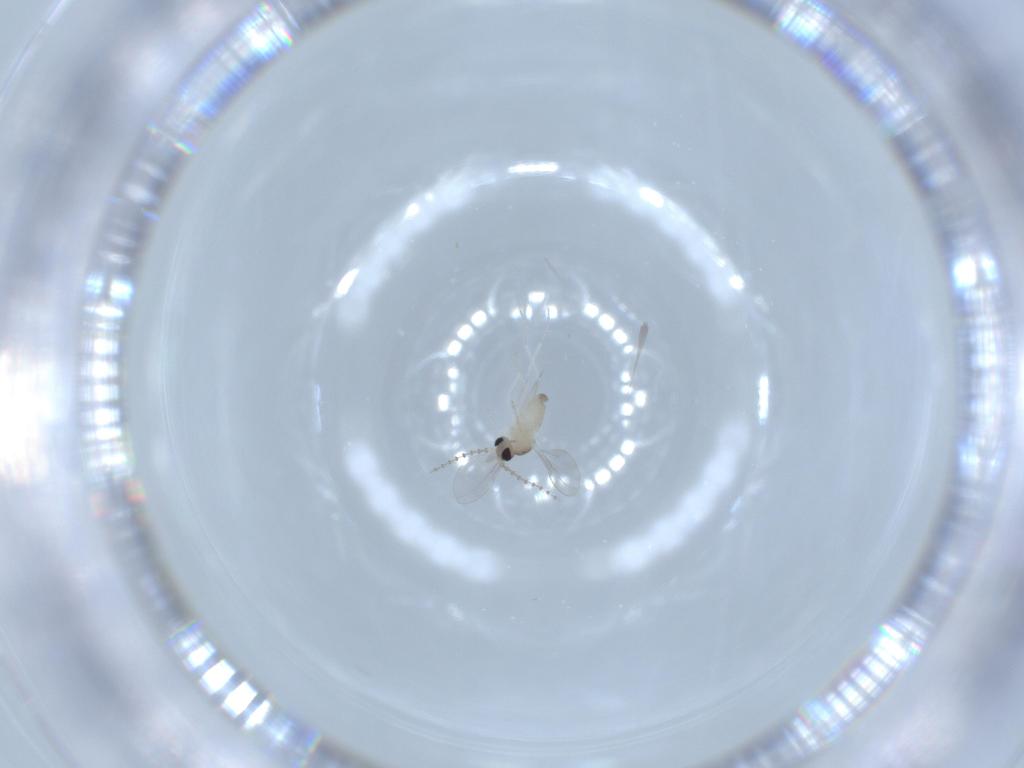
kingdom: Animalia
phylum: Arthropoda
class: Insecta
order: Diptera
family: Cecidomyiidae
